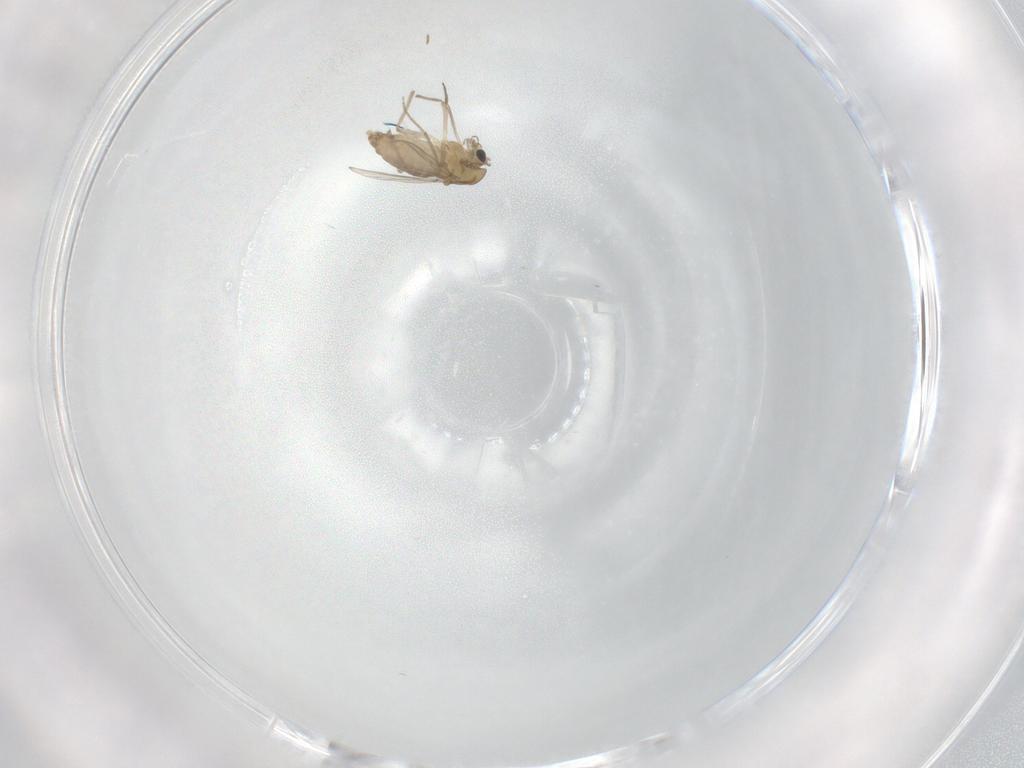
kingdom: Animalia
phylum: Arthropoda
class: Insecta
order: Diptera
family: Chironomidae
